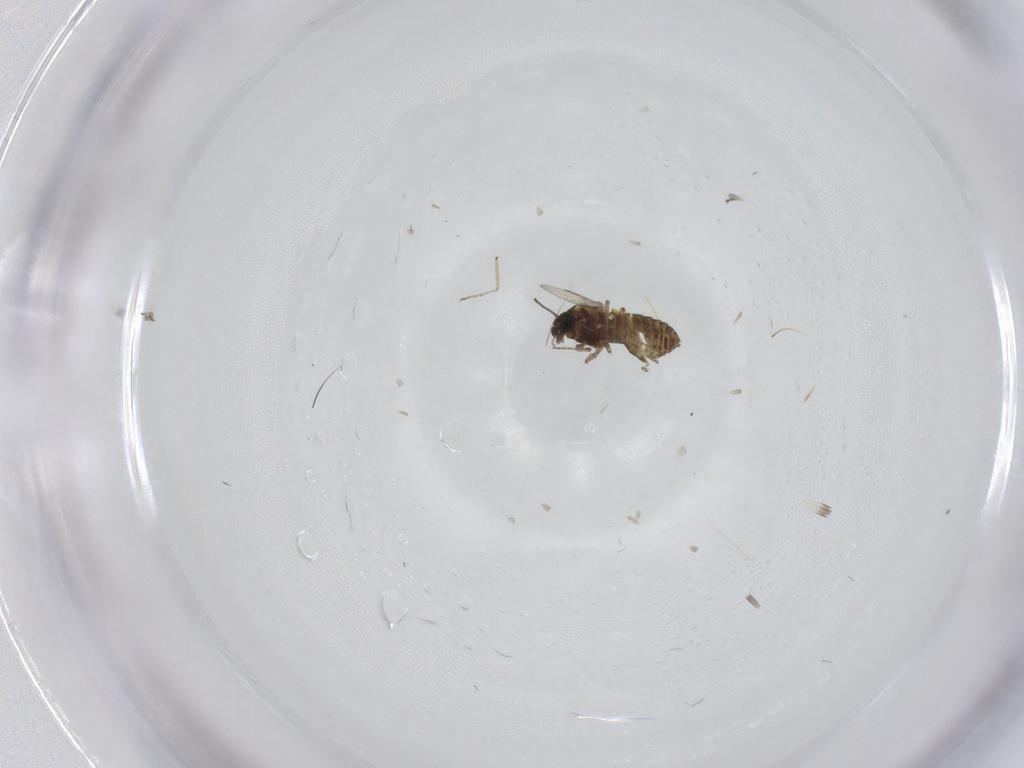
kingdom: Animalia
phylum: Arthropoda
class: Insecta
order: Diptera
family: Ceratopogonidae
